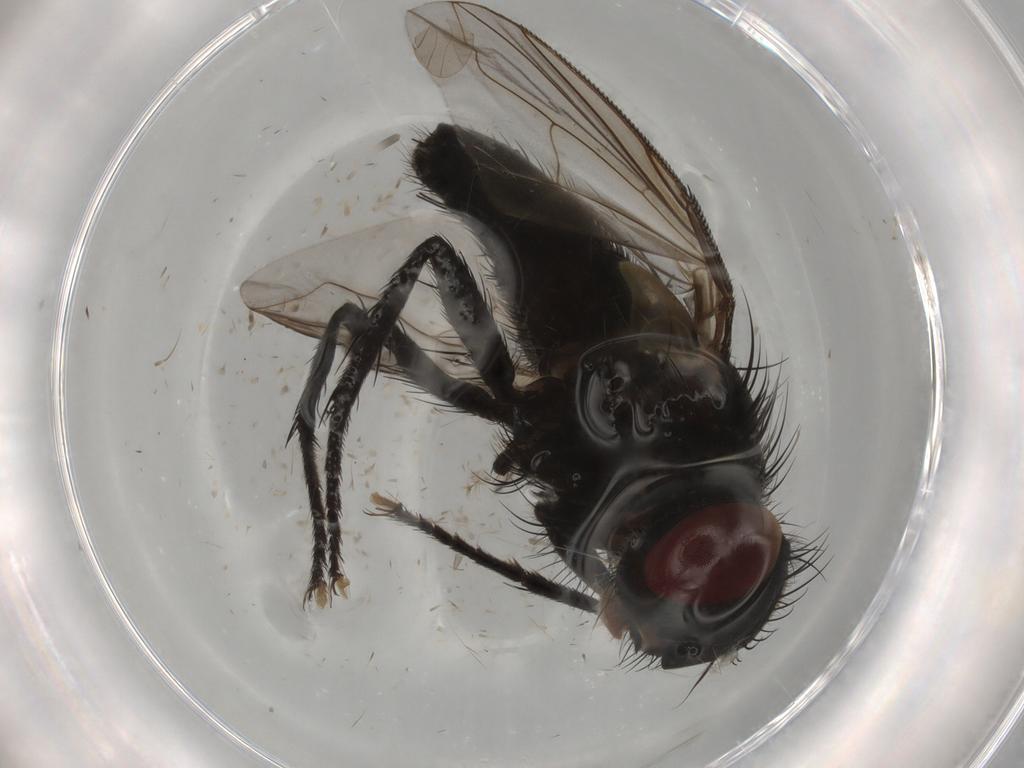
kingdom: Animalia
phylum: Arthropoda
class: Insecta
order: Diptera
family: Tachinidae
